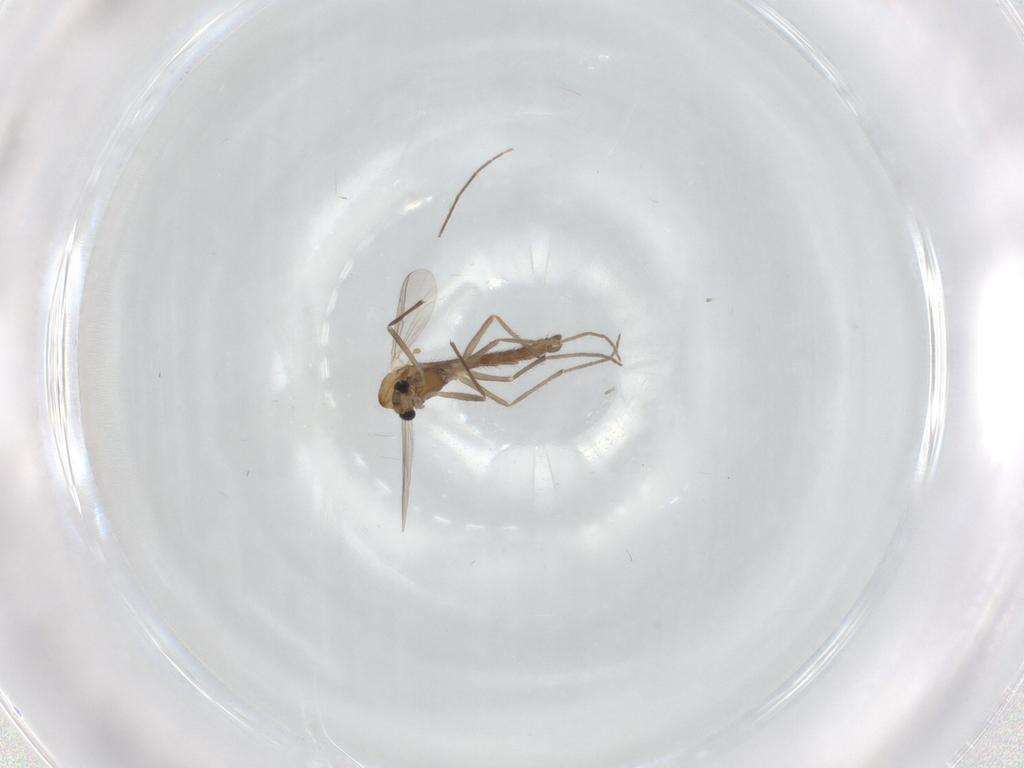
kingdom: Animalia
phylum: Arthropoda
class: Insecta
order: Diptera
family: Chironomidae
